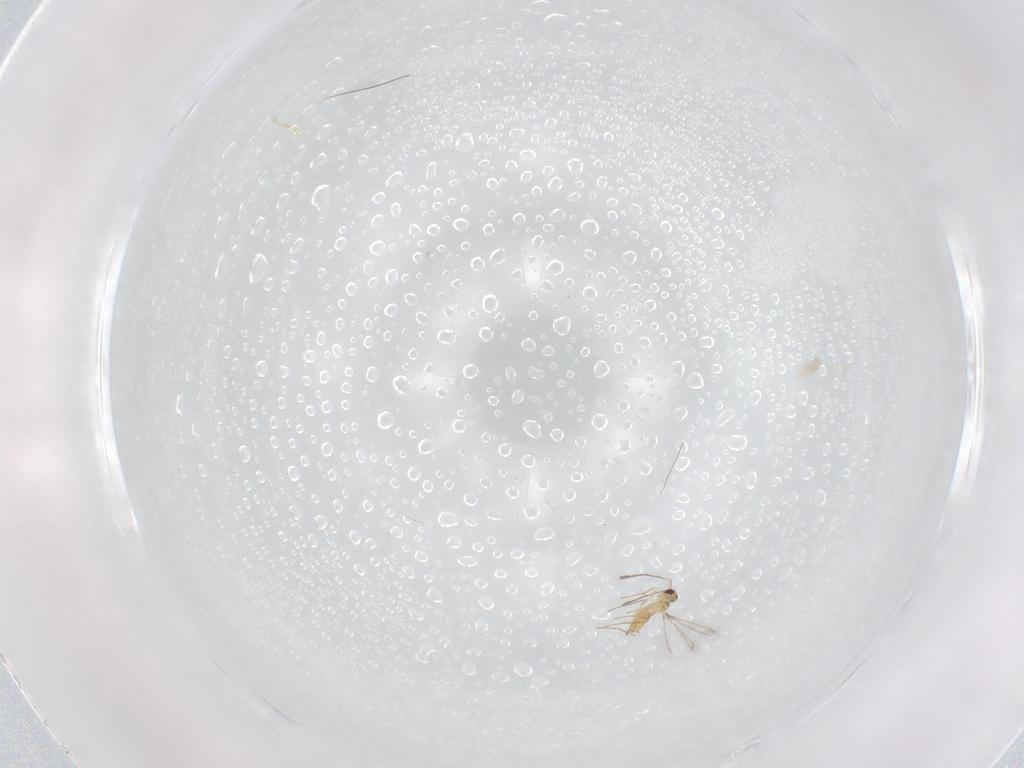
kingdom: Animalia
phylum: Arthropoda
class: Insecta
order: Hymenoptera
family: Mymaridae
